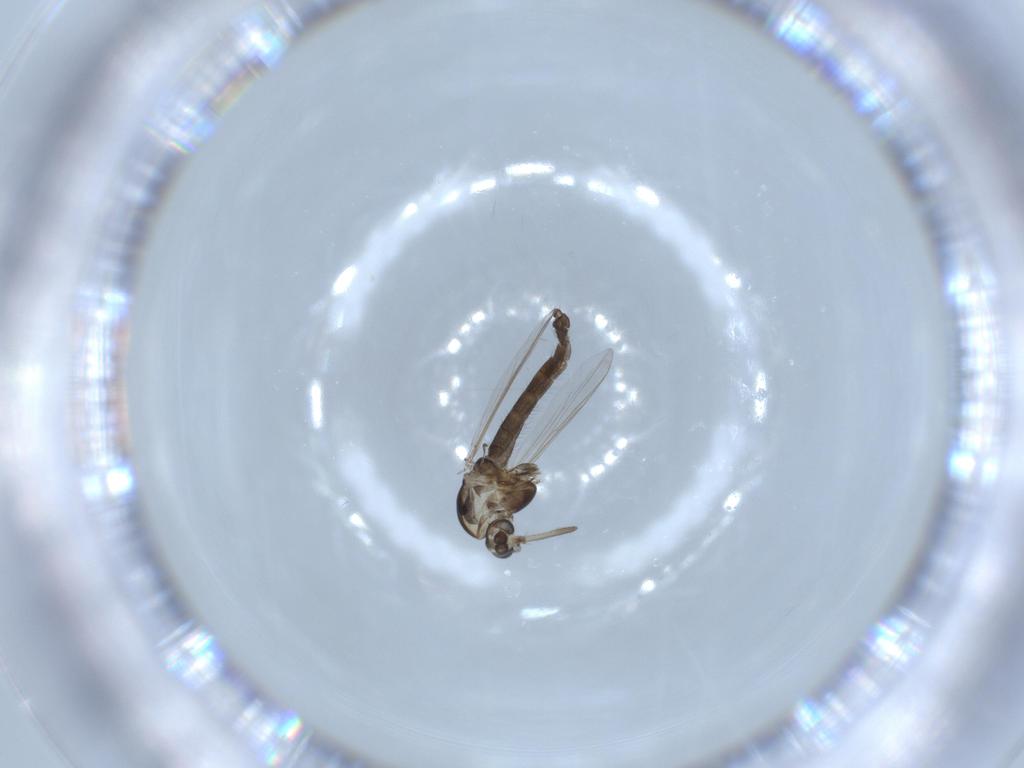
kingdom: Animalia
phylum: Arthropoda
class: Insecta
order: Diptera
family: Chironomidae
